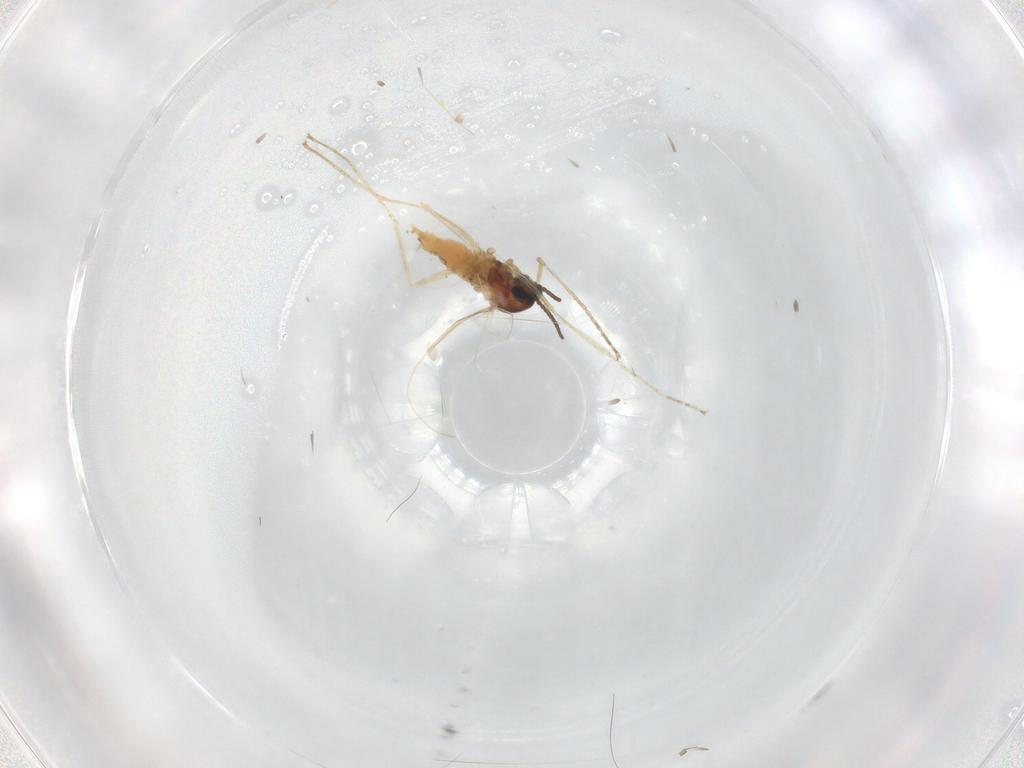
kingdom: Animalia
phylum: Arthropoda
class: Insecta
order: Diptera
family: Cecidomyiidae
